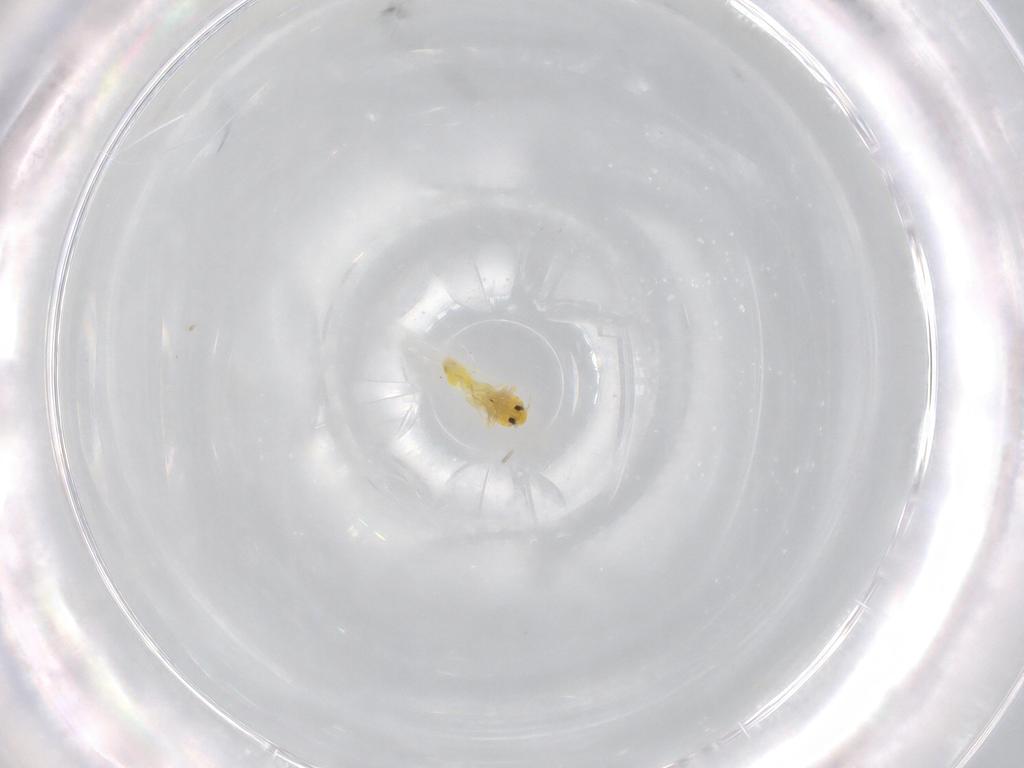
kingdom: Animalia
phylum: Arthropoda
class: Insecta
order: Hemiptera
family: Aleyrodidae
